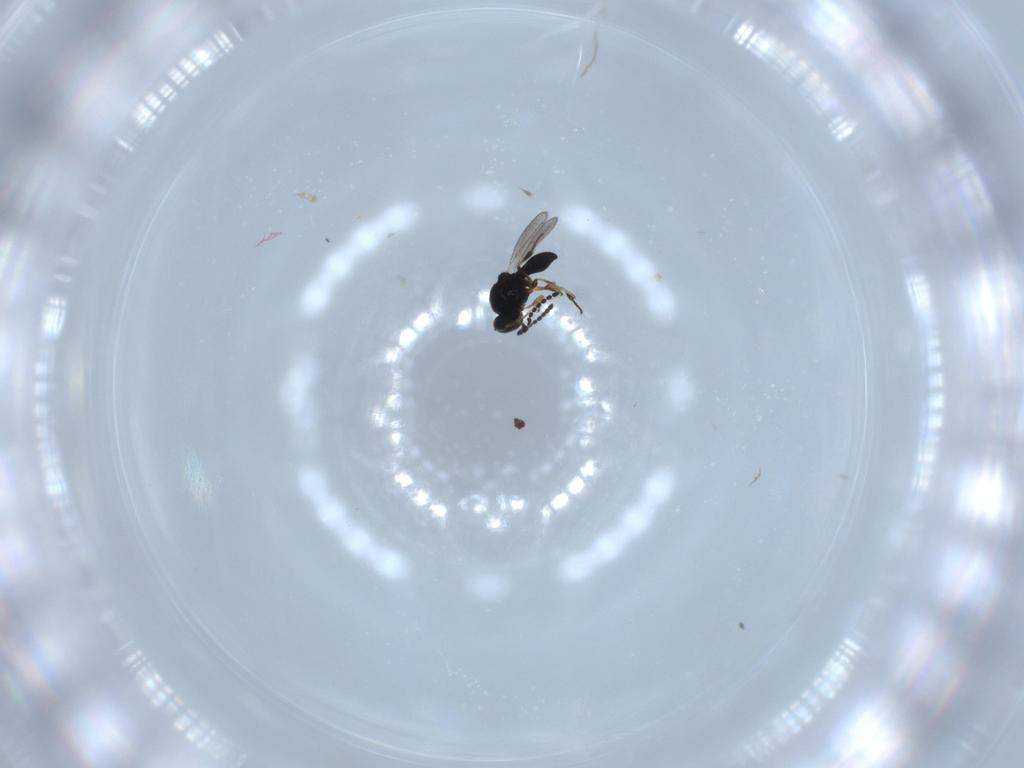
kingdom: Animalia
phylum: Arthropoda
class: Insecta
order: Hymenoptera
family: Platygastridae
